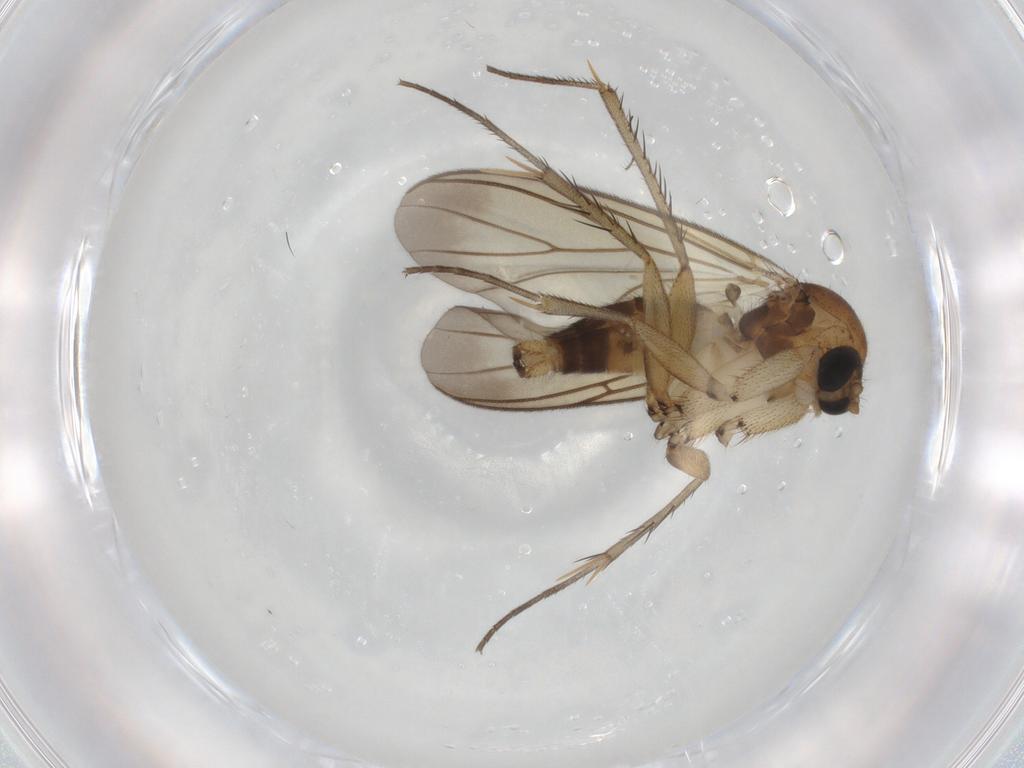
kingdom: Animalia
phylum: Arthropoda
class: Insecta
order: Diptera
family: Mycetophilidae
